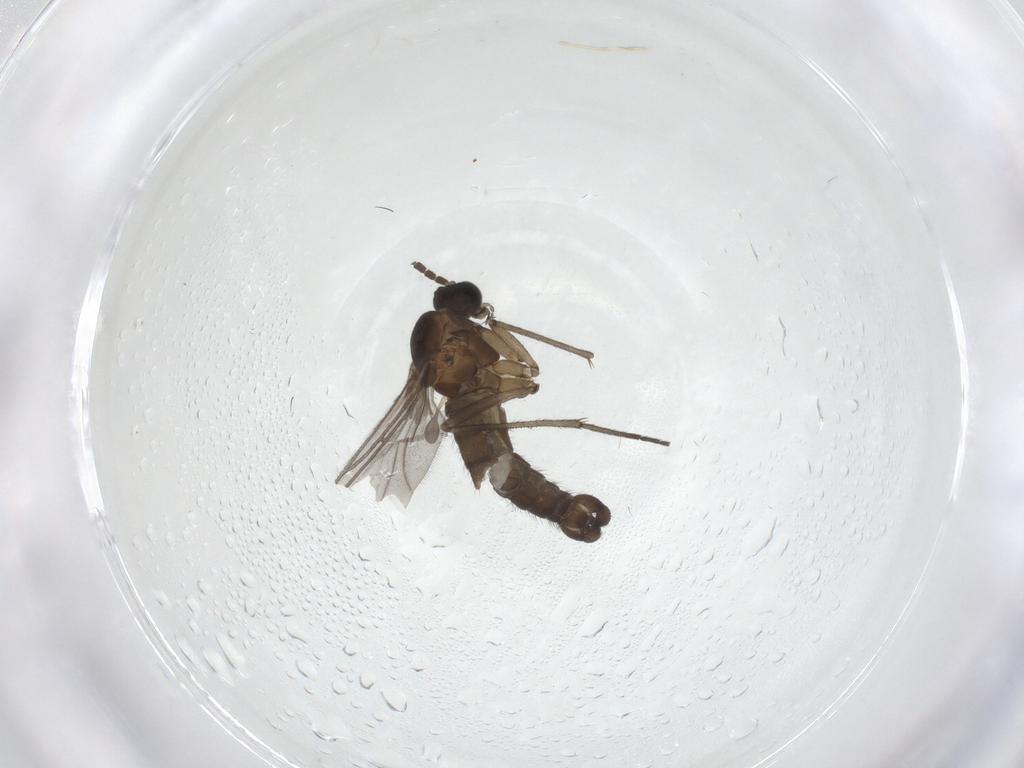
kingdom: Animalia
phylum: Arthropoda
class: Insecta
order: Diptera
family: Sciaridae
